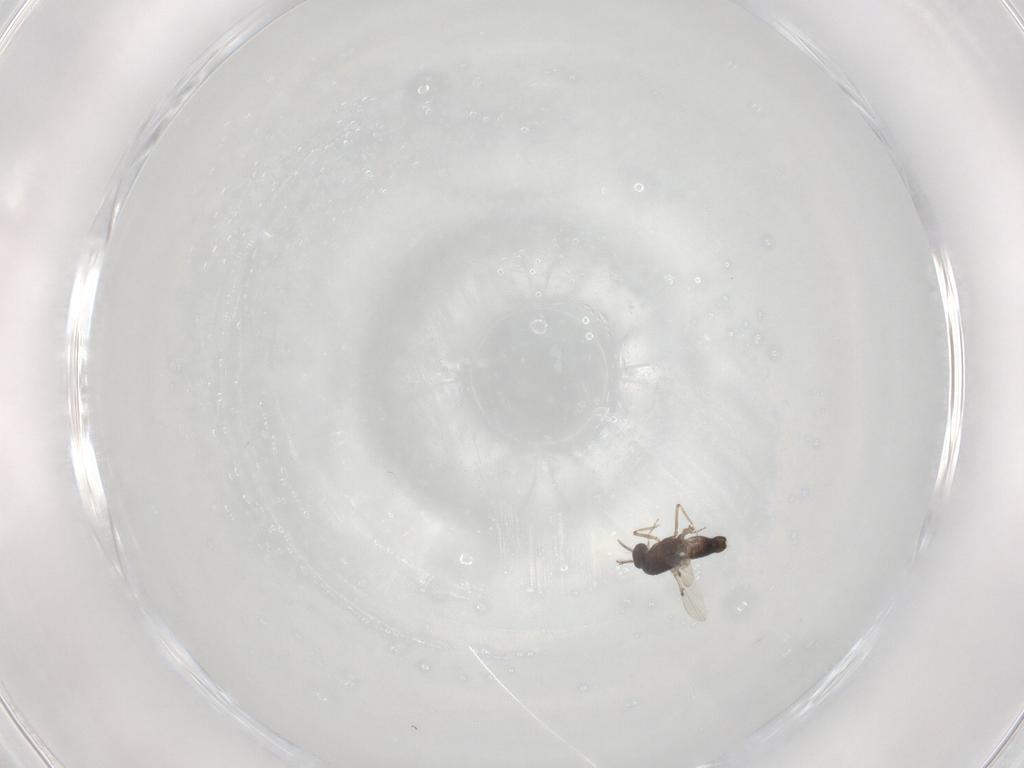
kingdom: Animalia
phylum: Arthropoda
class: Insecta
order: Diptera
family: Ceratopogonidae
